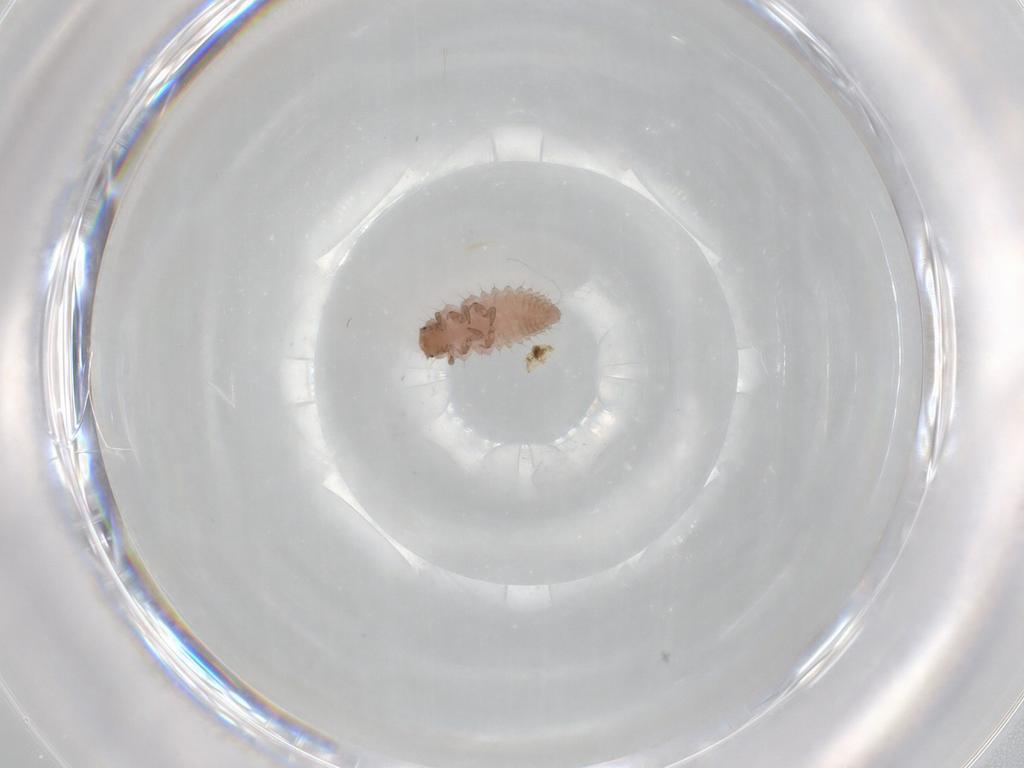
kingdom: Animalia
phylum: Arthropoda
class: Insecta
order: Coleoptera
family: Coccinellidae
